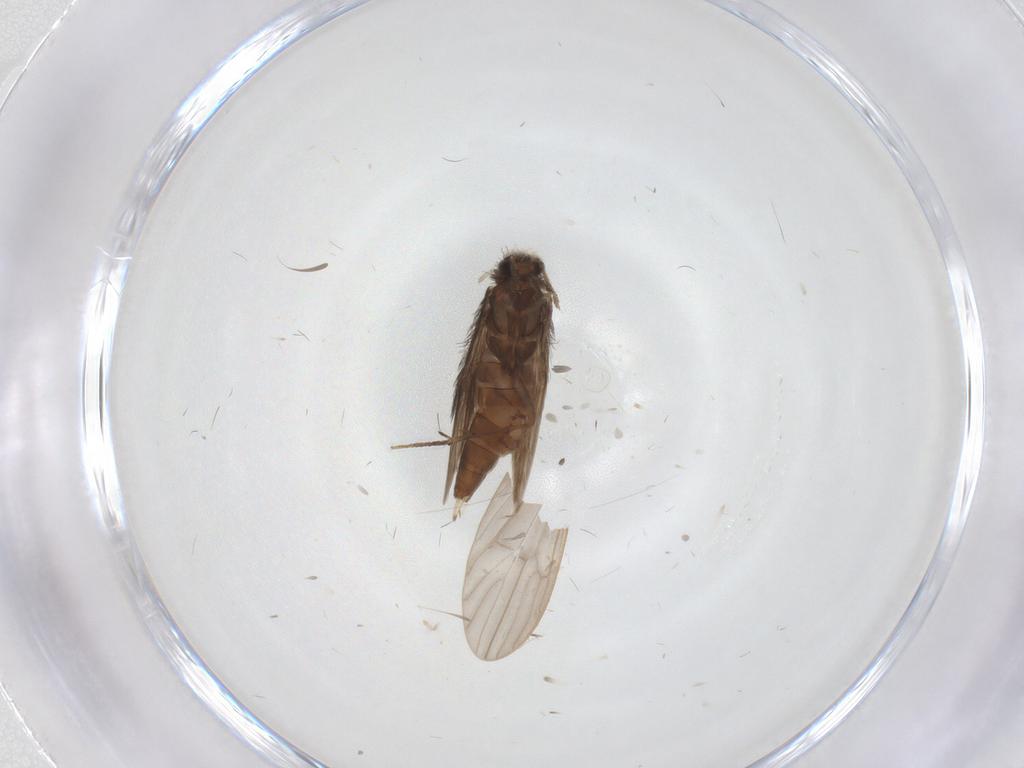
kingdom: Animalia
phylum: Arthropoda
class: Insecta
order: Trichoptera
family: Hydroptilidae
